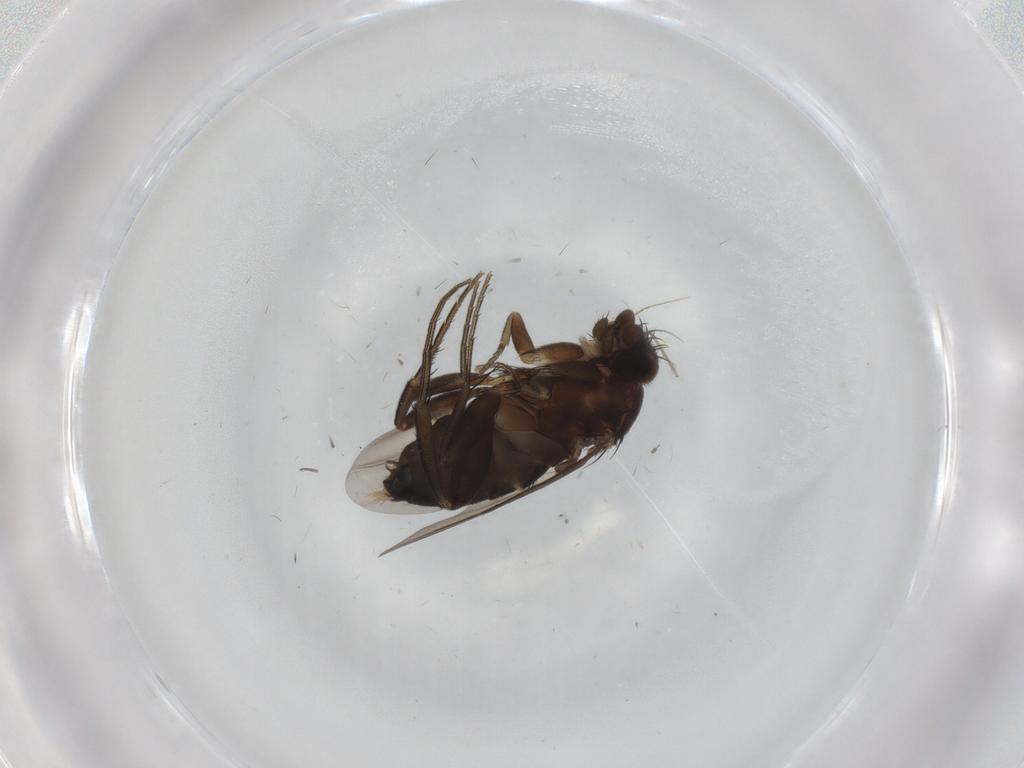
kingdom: Animalia
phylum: Arthropoda
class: Insecta
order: Diptera
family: Phoridae
